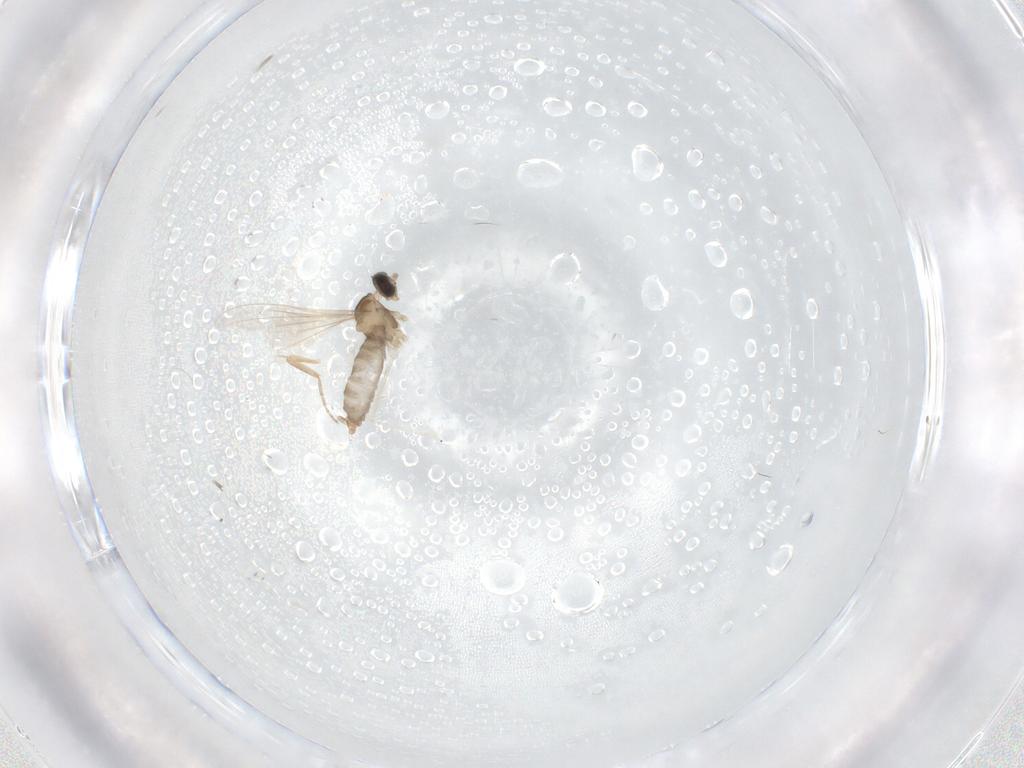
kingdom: Animalia
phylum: Arthropoda
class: Insecta
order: Diptera
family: Cecidomyiidae
